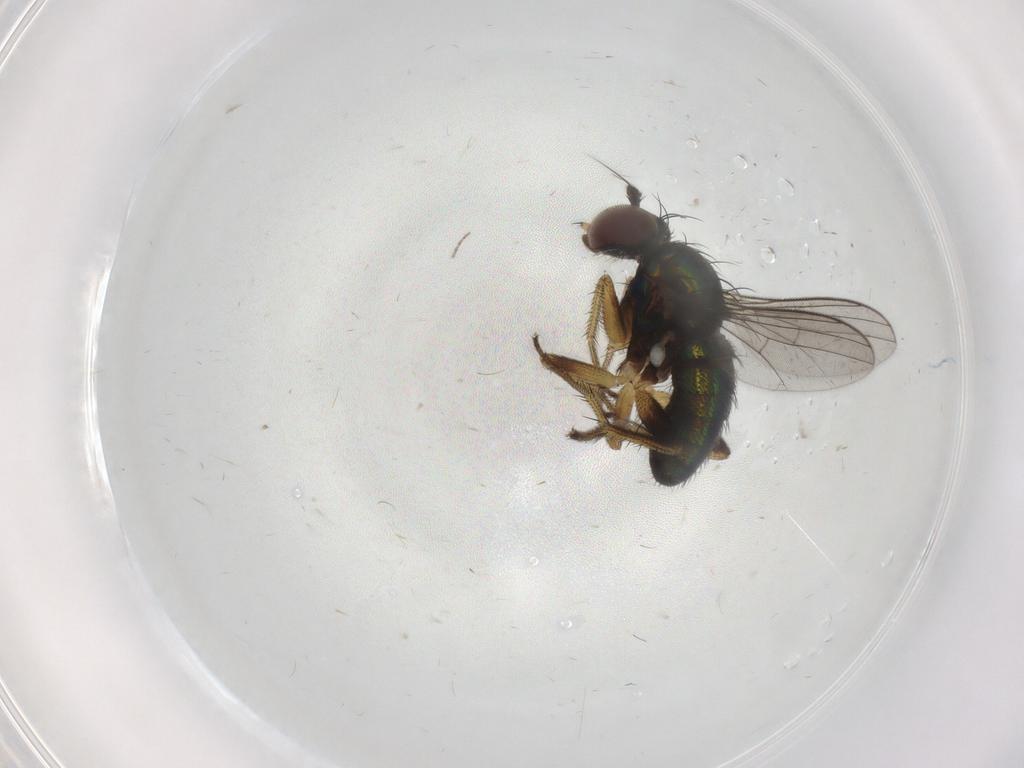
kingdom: Animalia
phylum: Arthropoda
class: Insecta
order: Diptera
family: Dolichopodidae
